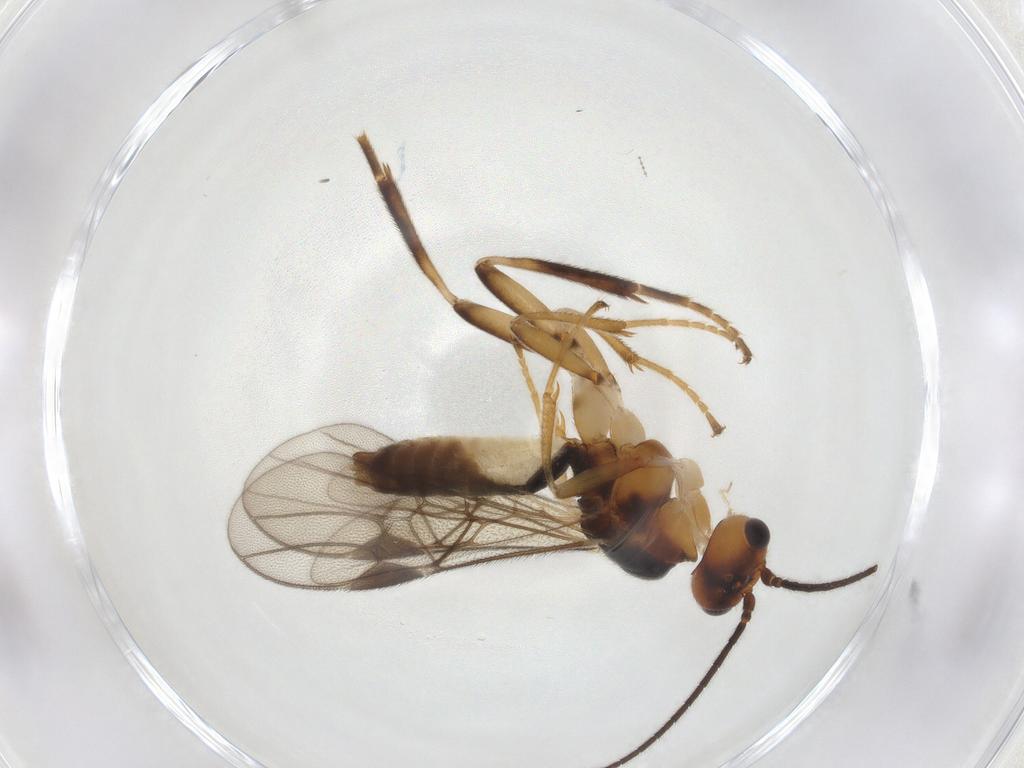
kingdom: Animalia
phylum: Arthropoda
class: Insecta
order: Hymenoptera
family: Braconidae
